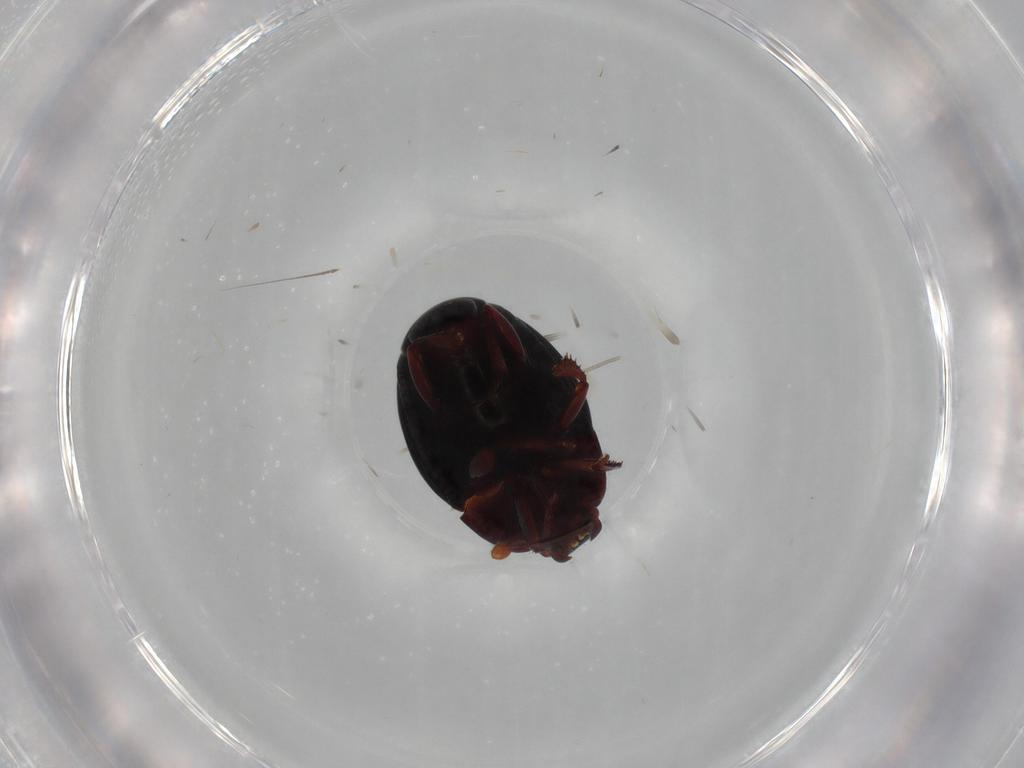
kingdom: Animalia
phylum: Arthropoda
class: Insecta
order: Coleoptera
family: Histeridae
